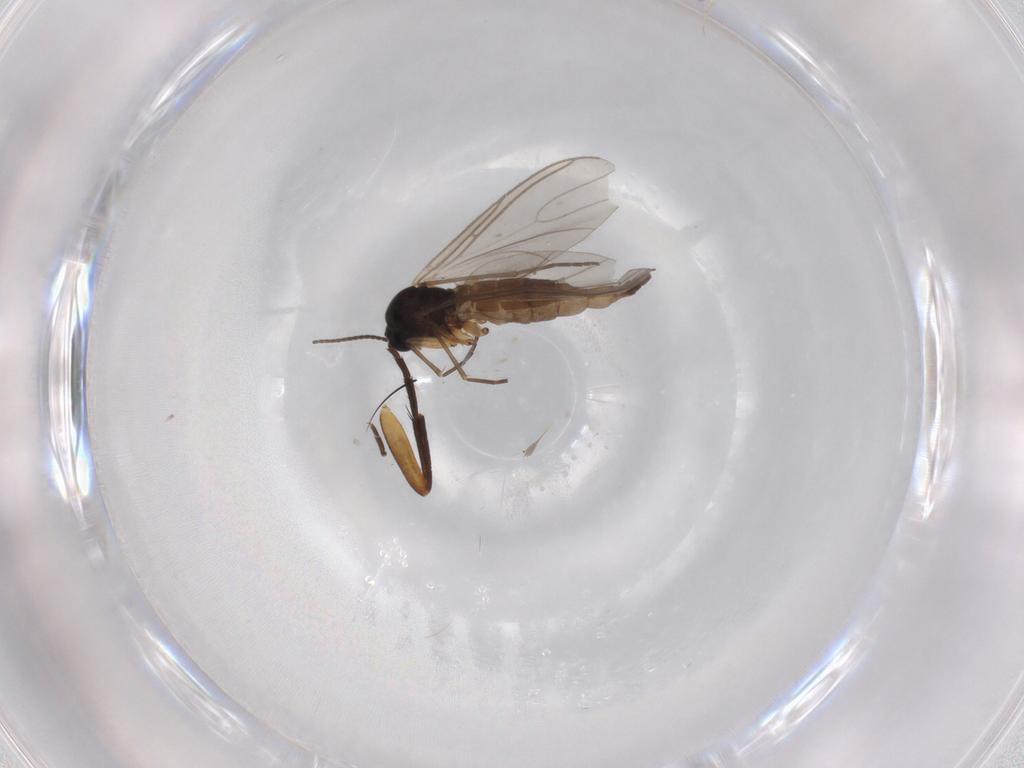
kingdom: Animalia
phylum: Arthropoda
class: Insecta
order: Diptera
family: Sciaridae
